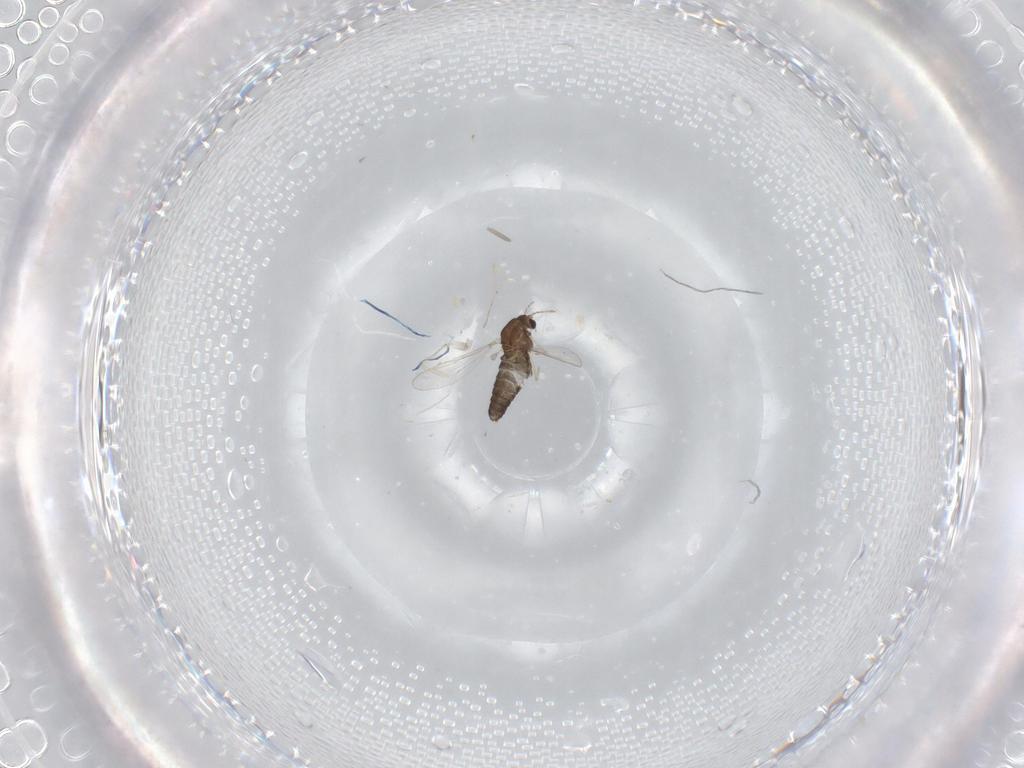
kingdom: Animalia
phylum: Arthropoda
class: Insecta
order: Diptera
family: Chironomidae
